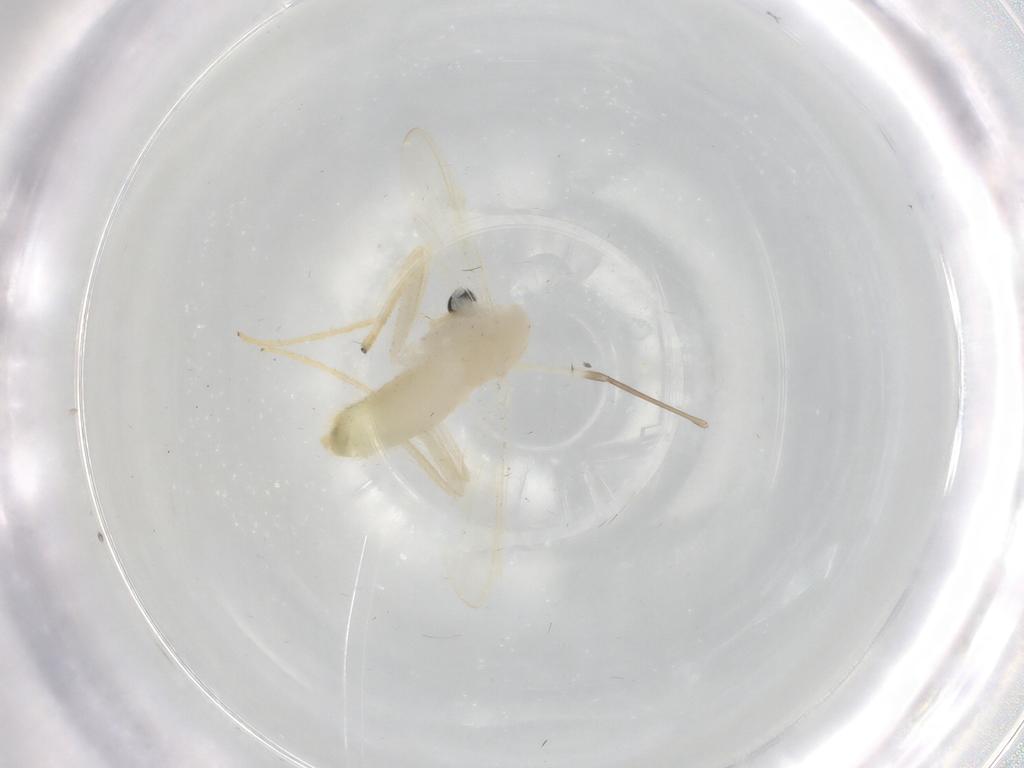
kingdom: Animalia
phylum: Arthropoda
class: Insecta
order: Diptera
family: Chironomidae
